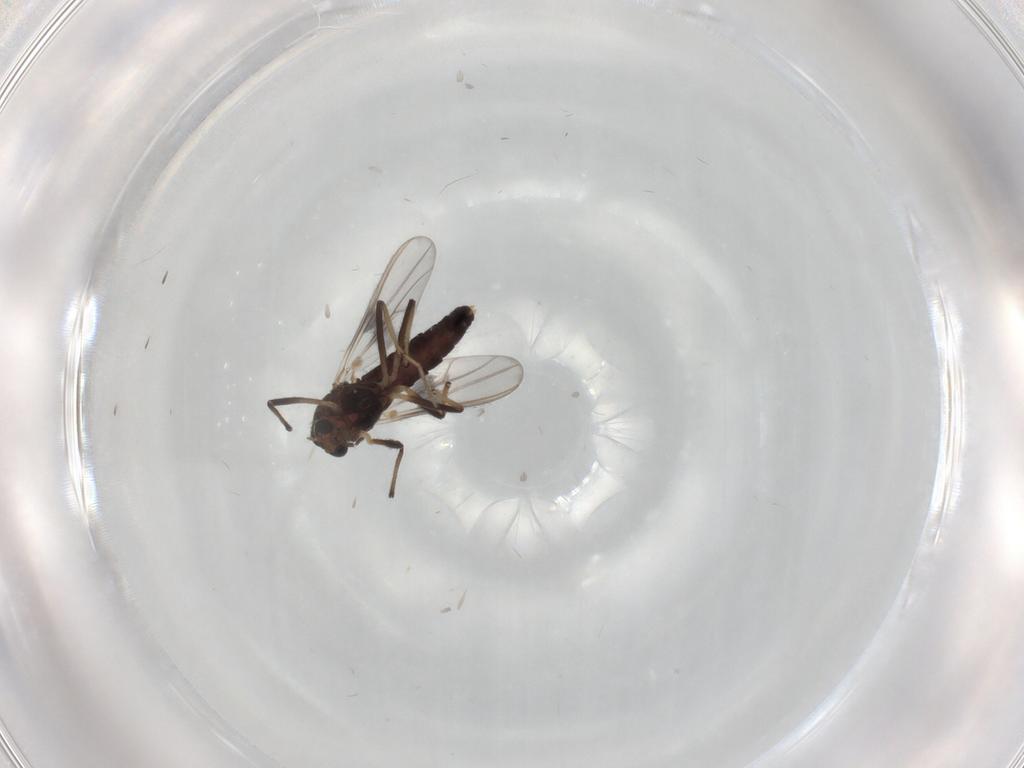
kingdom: Animalia
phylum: Arthropoda
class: Insecta
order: Diptera
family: Chironomidae
